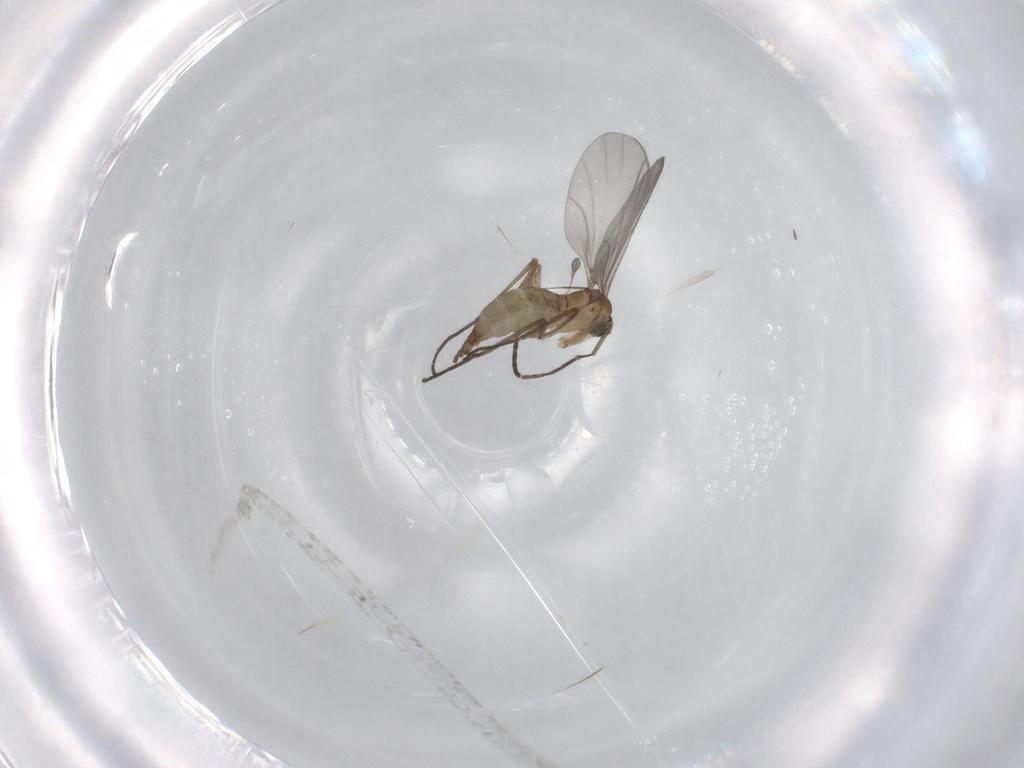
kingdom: Animalia
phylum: Arthropoda
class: Insecta
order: Diptera
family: Sciaridae
